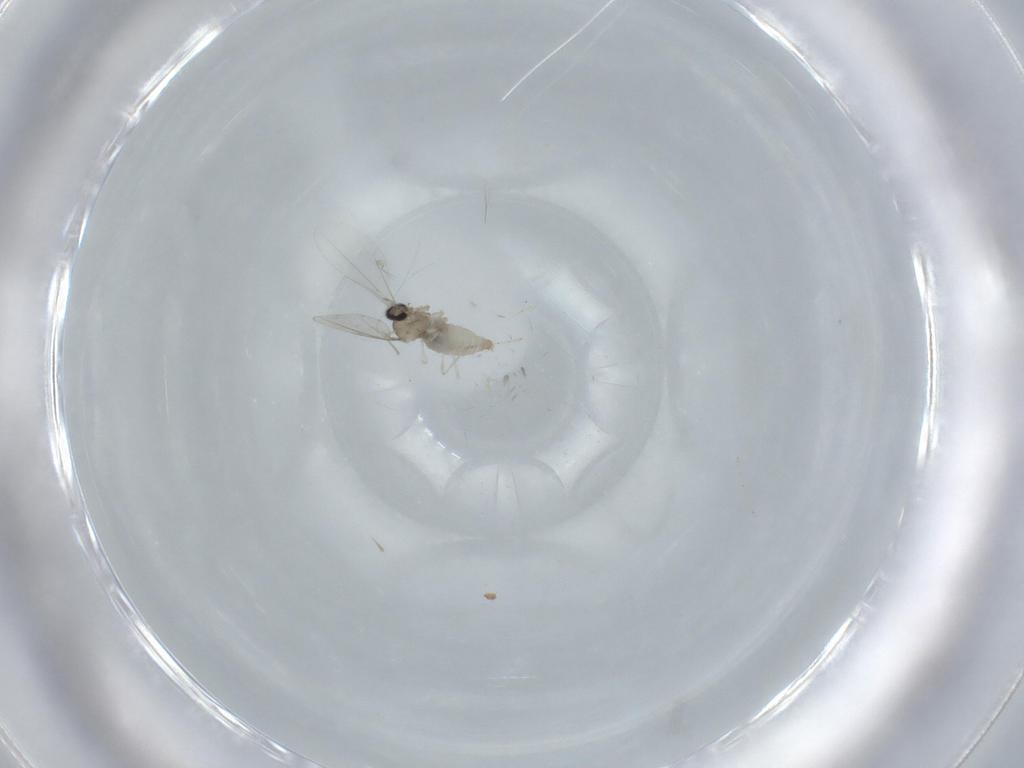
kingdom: Animalia
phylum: Arthropoda
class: Insecta
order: Diptera
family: Cecidomyiidae
